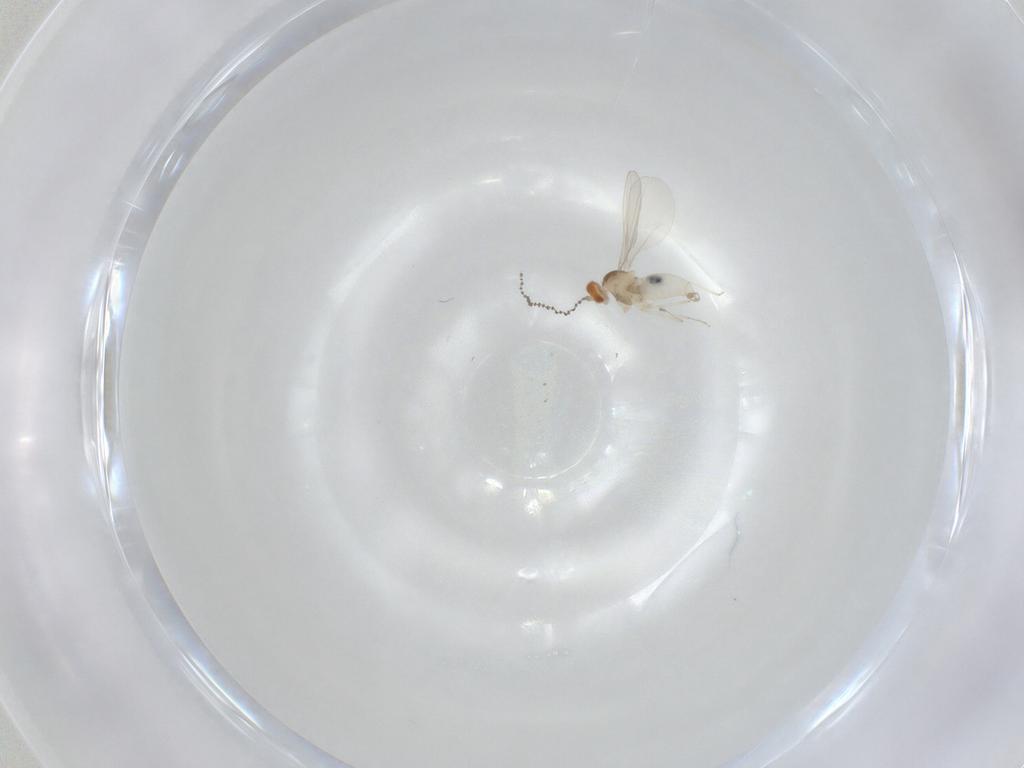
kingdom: Animalia
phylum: Arthropoda
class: Insecta
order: Diptera
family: Cecidomyiidae
